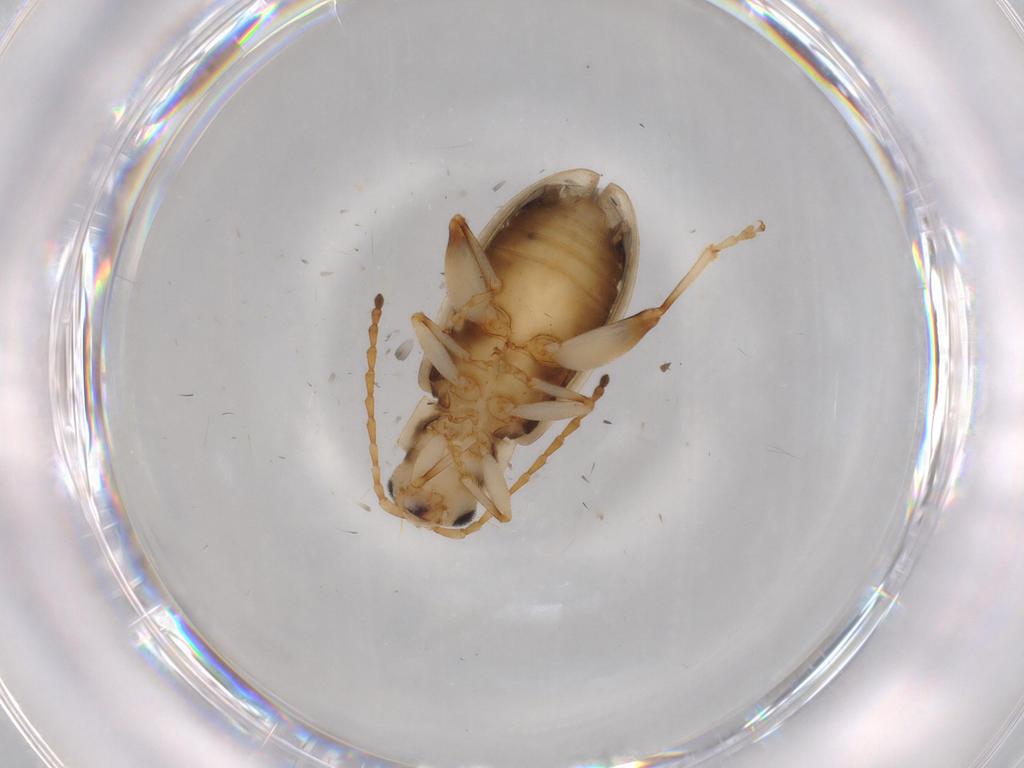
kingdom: Animalia
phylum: Arthropoda
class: Insecta
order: Coleoptera
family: Chrysomelidae
